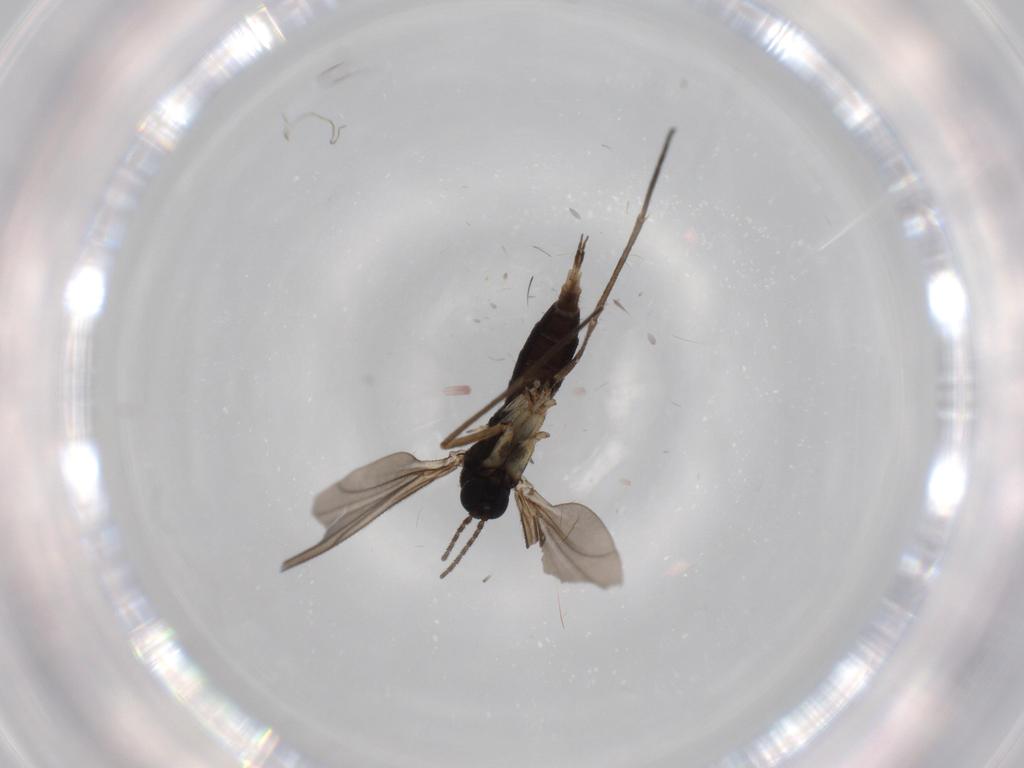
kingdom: Animalia
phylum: Arthropoda
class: Insecta
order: Diptera
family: Sciaridae
